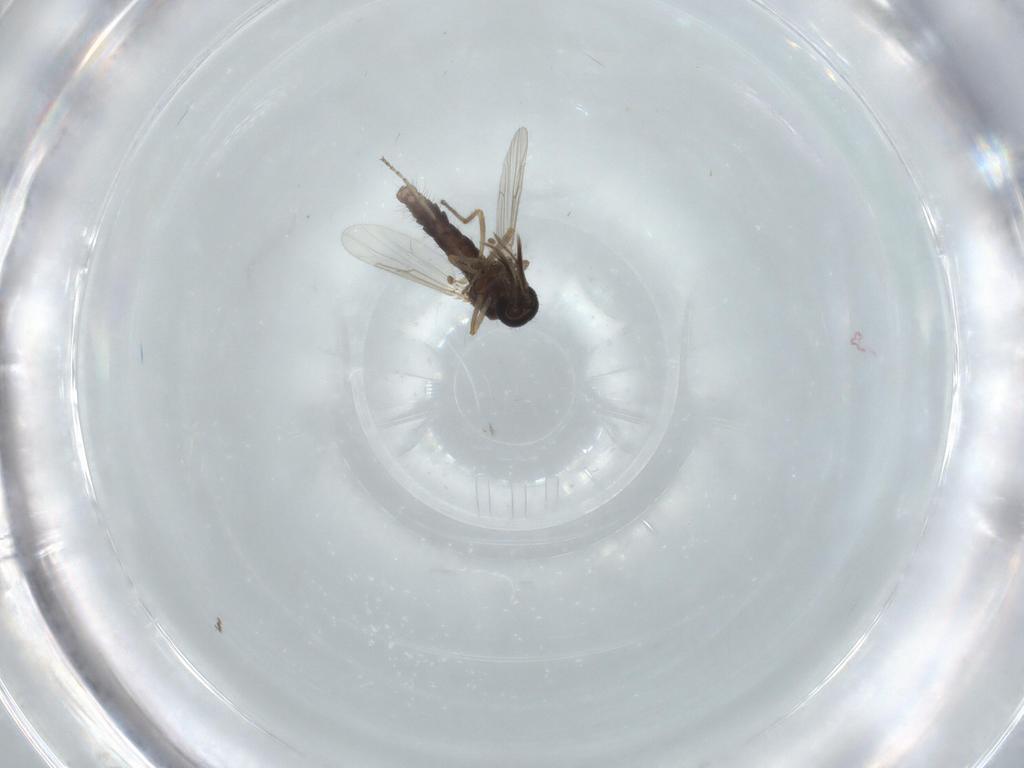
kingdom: Animalia
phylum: Arthropoda
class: Insecta
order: Diptera
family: Ceratopogonidae
